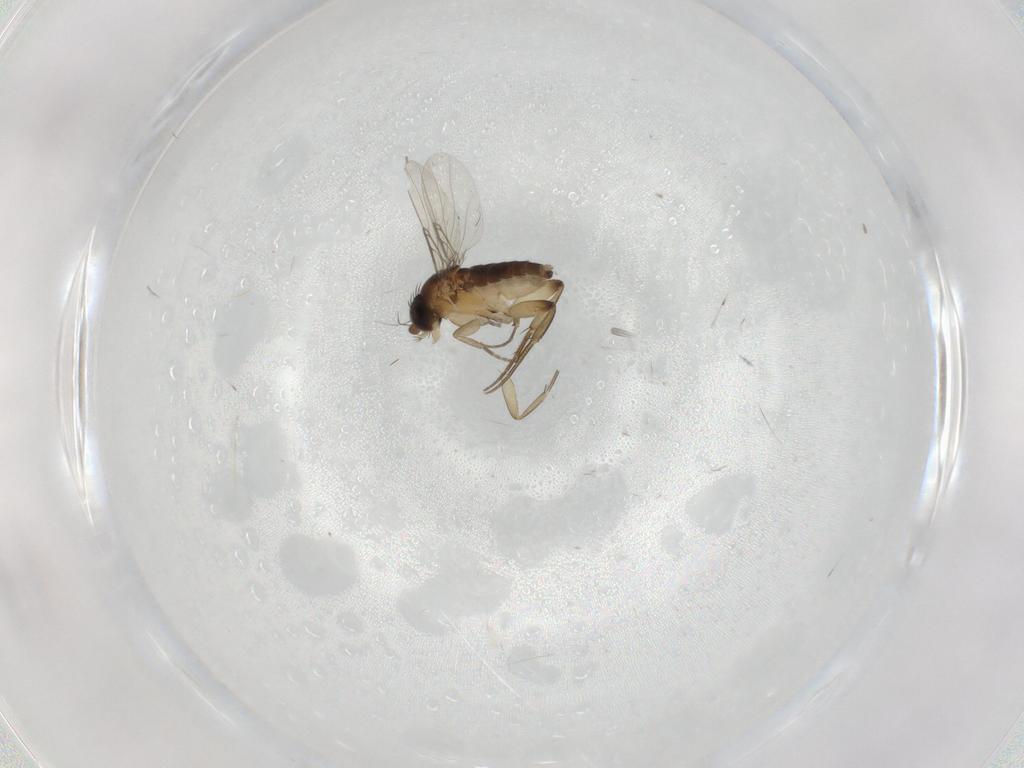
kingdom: Animalia
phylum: Arthropoda
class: Insecta
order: Diptera
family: Phoridae
